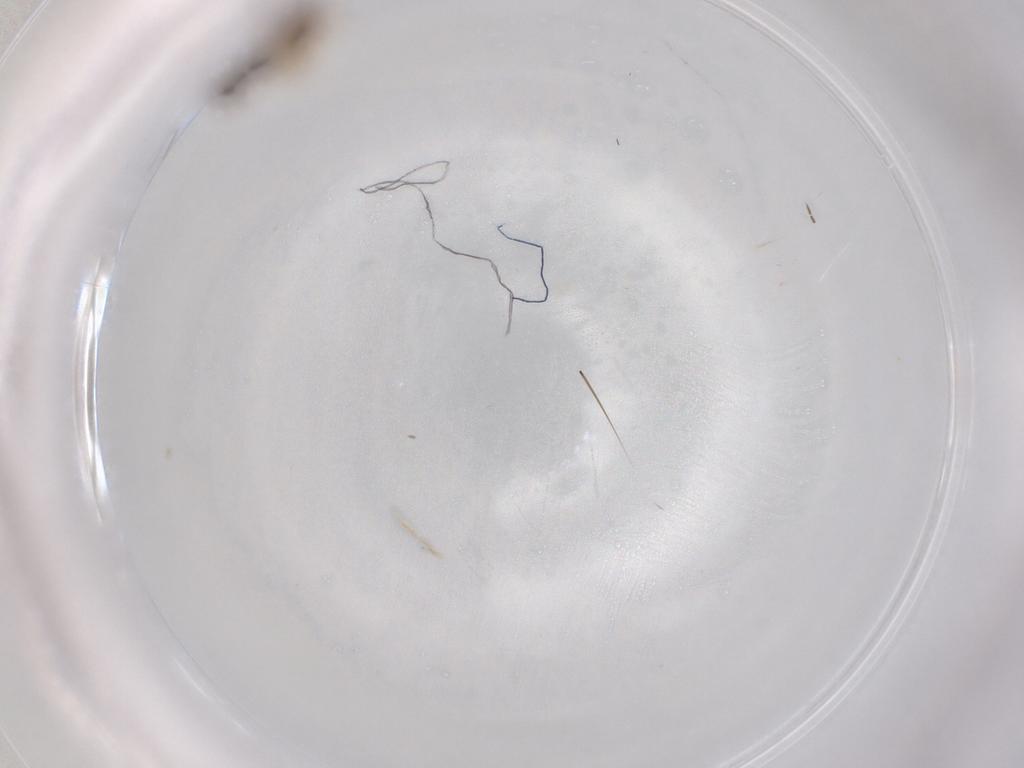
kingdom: Animalia
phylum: Arthropoda
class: Insecta
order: Hymenoptera
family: Eulophidae
